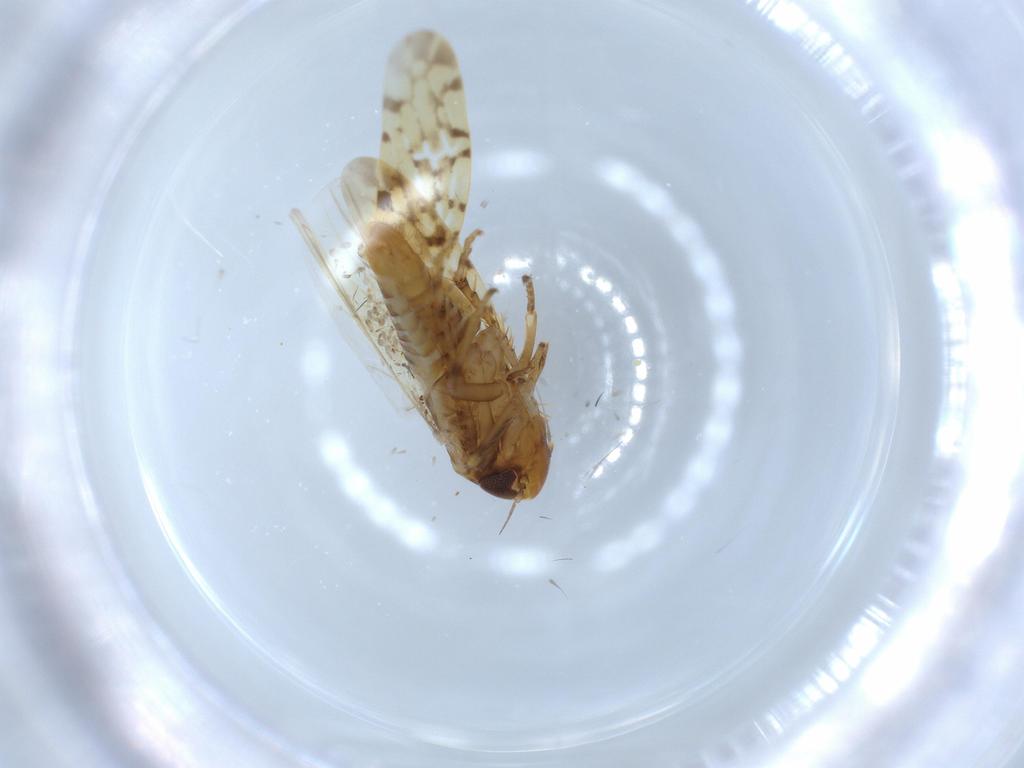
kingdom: Animalia
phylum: Arthropoda
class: Insecta
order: Hemiptera
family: Cicadellidae
